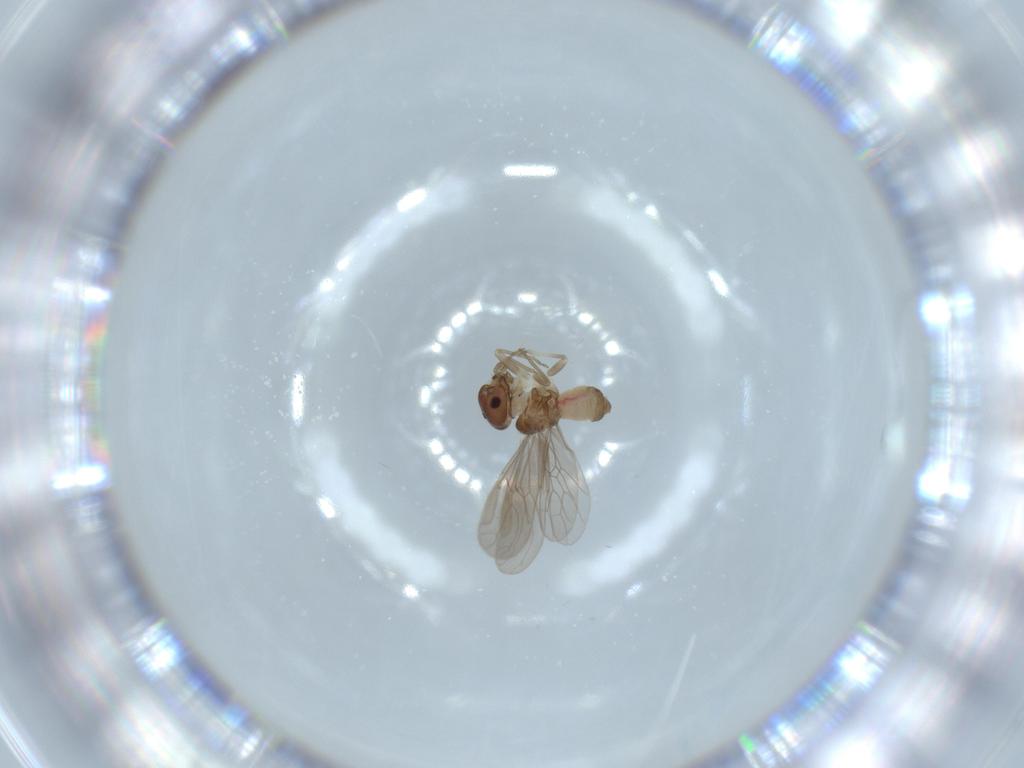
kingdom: Animalia
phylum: Arthropoda
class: Insecta
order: Psocodea
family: Asiopsocidae
